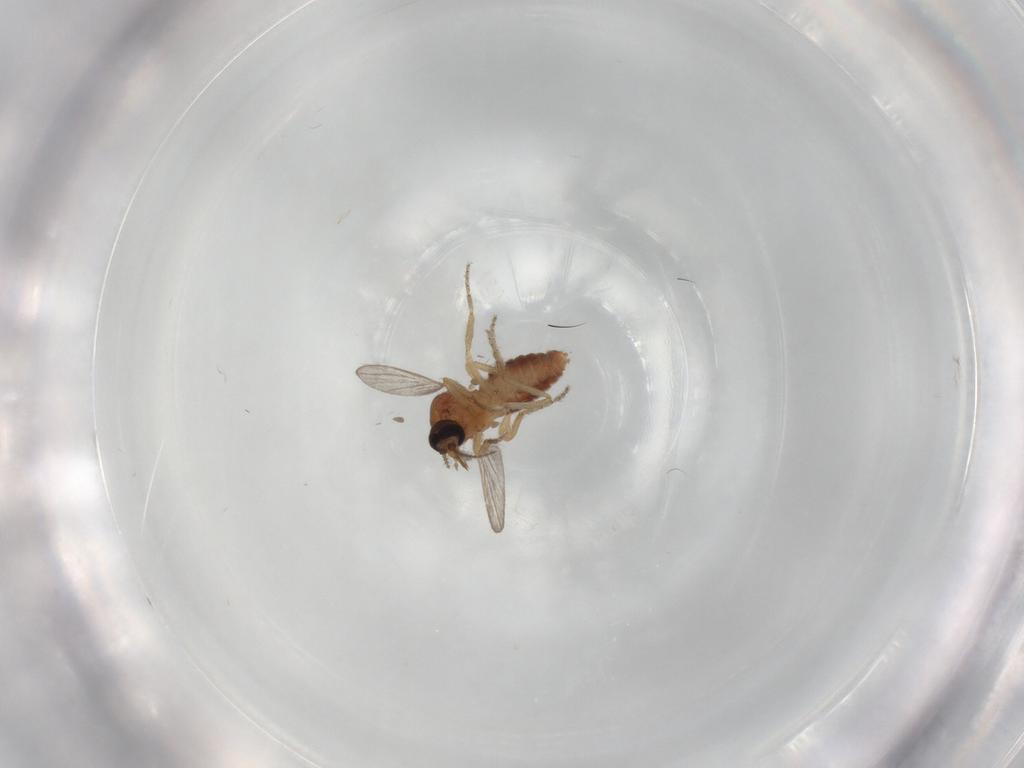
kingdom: Animalia
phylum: Arthropoda
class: Insecta
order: Diptera
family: Ceratopogonidae
